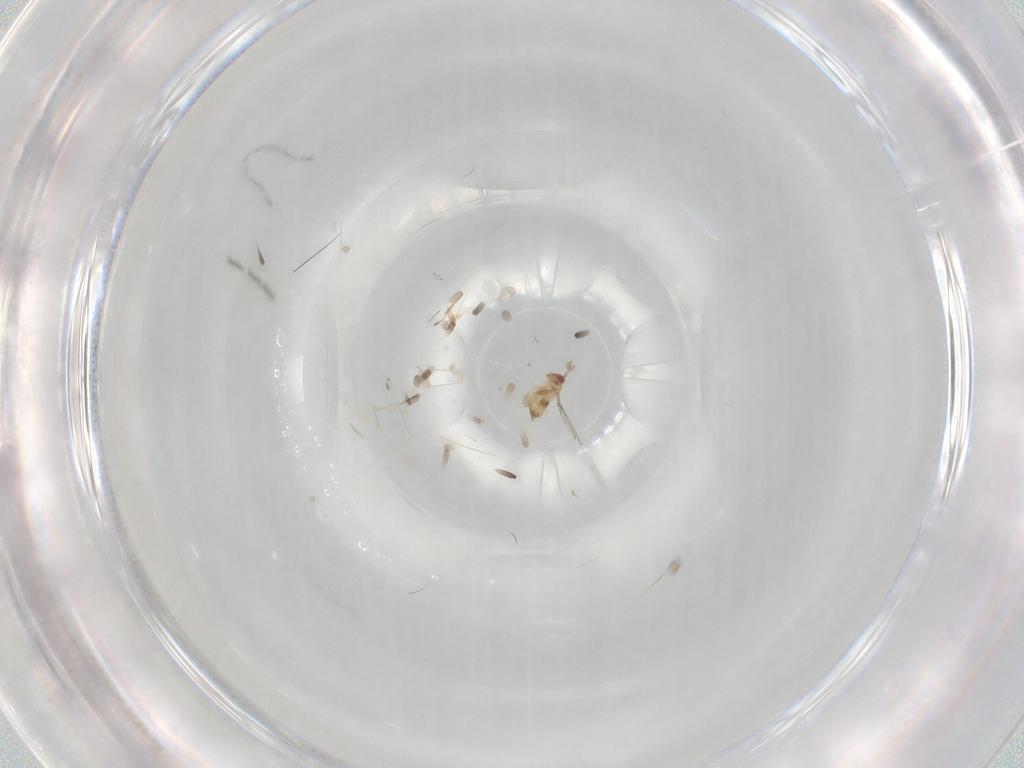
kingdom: Animalia
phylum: Arthropoda
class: Insecta
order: Hymenoptera
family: Trichogrammatidae
